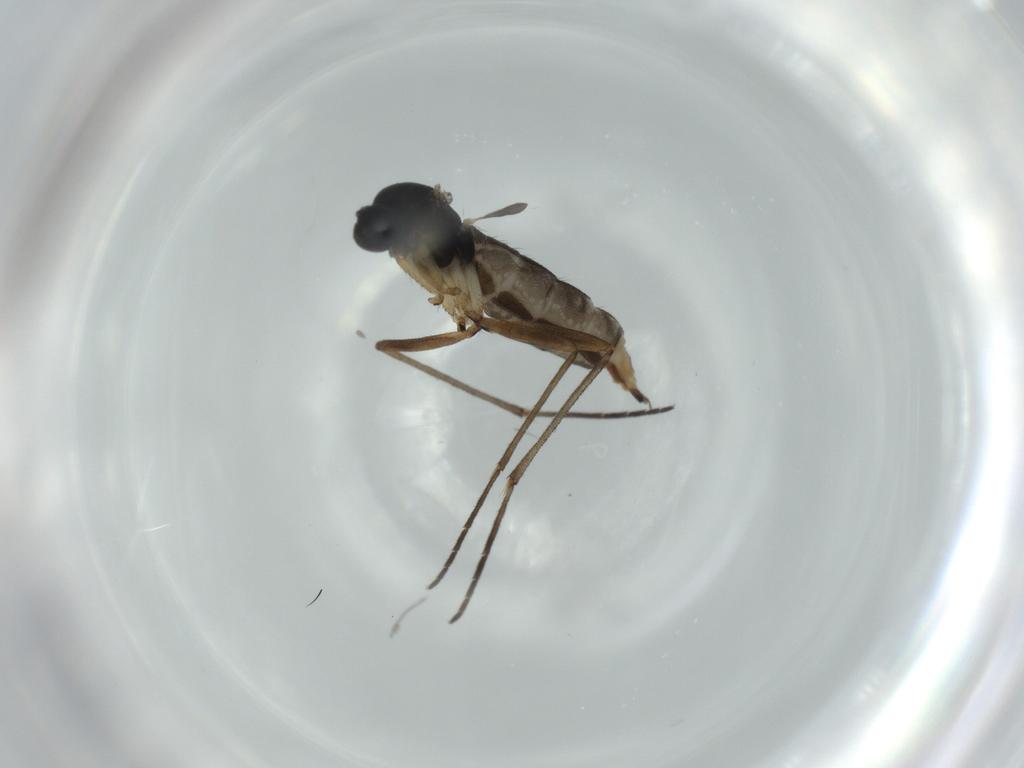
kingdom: Animalia
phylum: Arthropoda
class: Insecta
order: Diptera
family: Sciaridae
